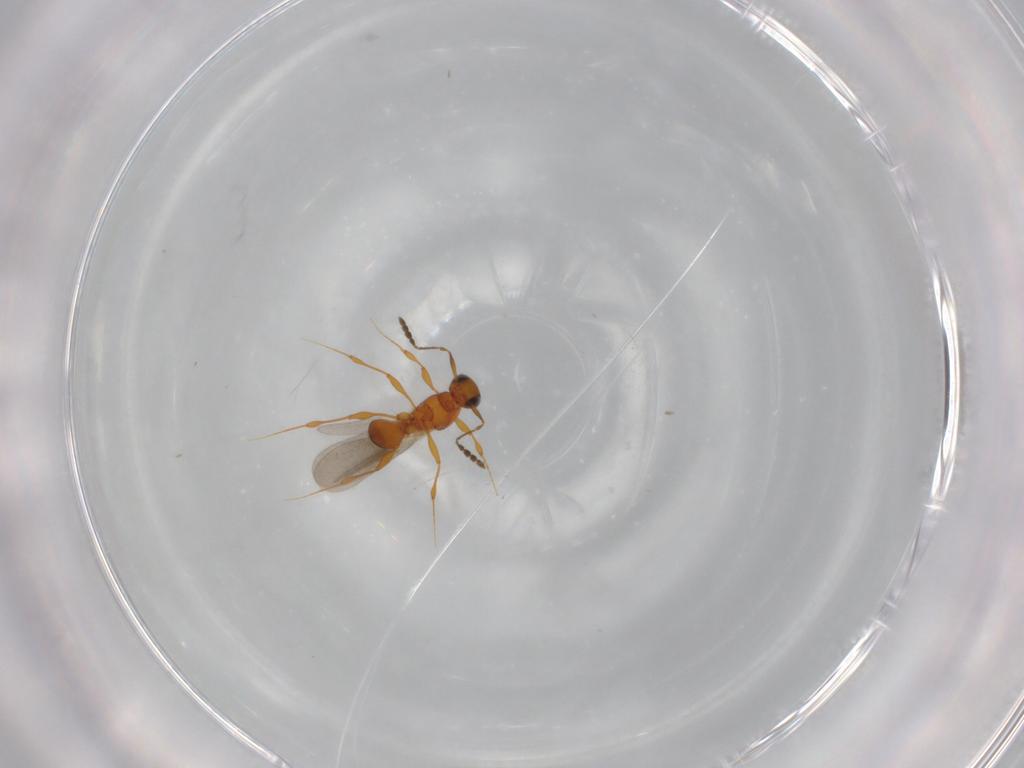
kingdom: Animalia
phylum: Arthropoda
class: Insecta
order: Hymenoptera
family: Platygastridae
